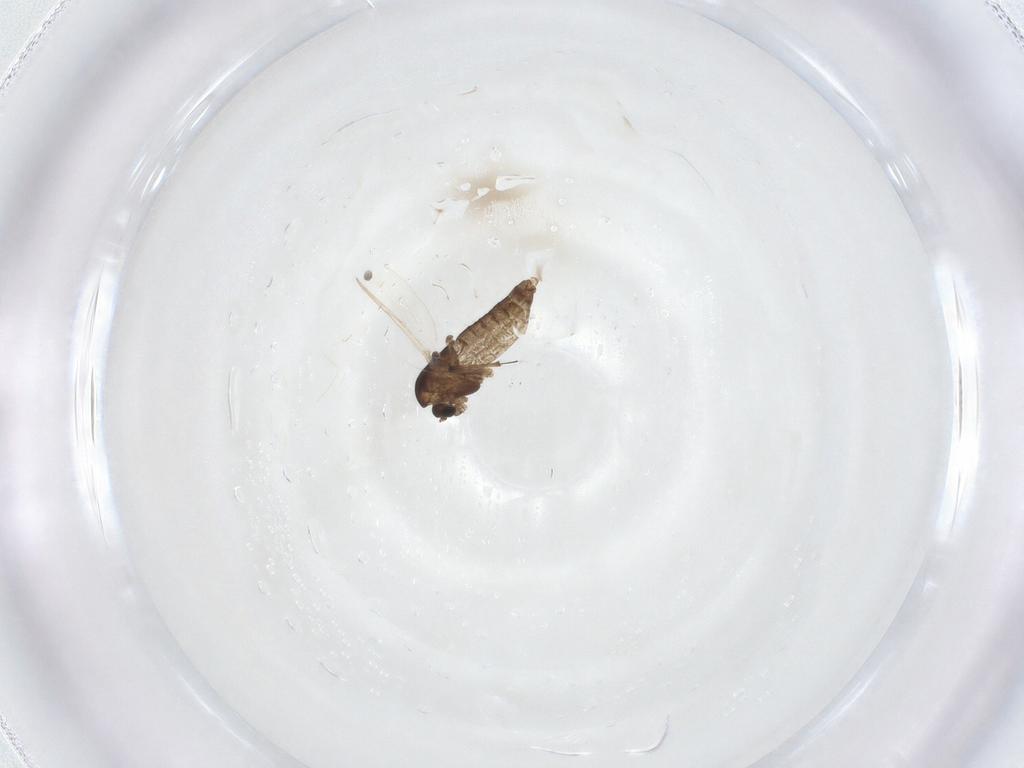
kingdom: Animalia
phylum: Arthropoda
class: Insecta
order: Diptera
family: Chironomidae
